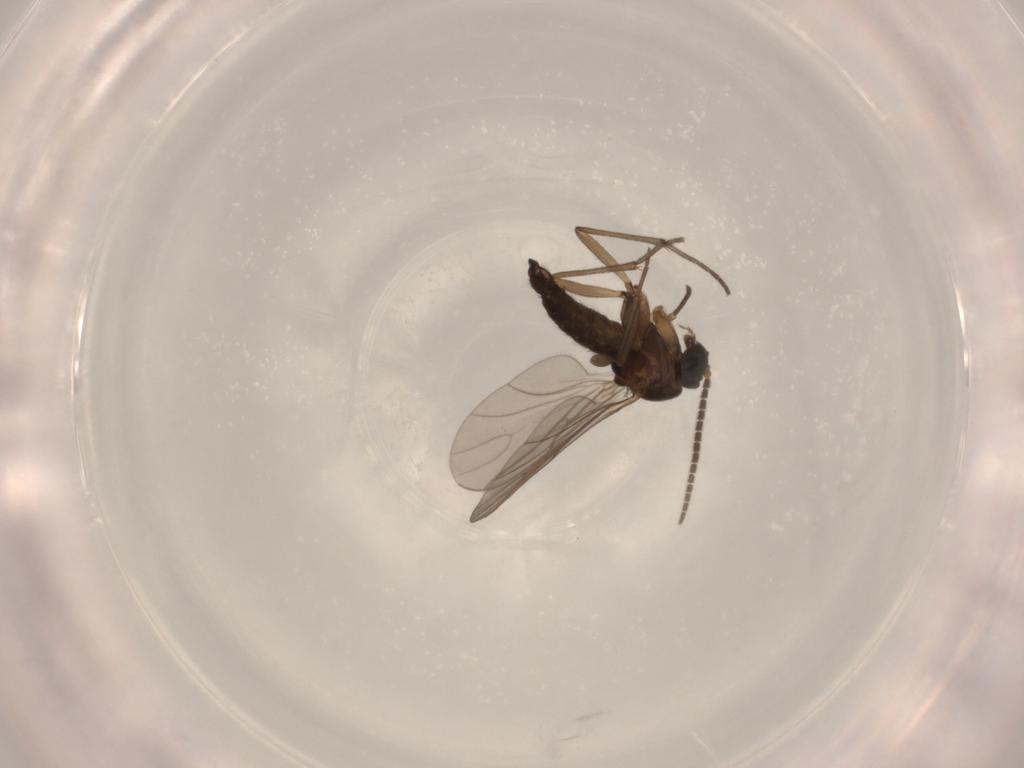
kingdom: Animalia
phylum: Arthropoda
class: Insecta
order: Diptera
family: Sciaridae
